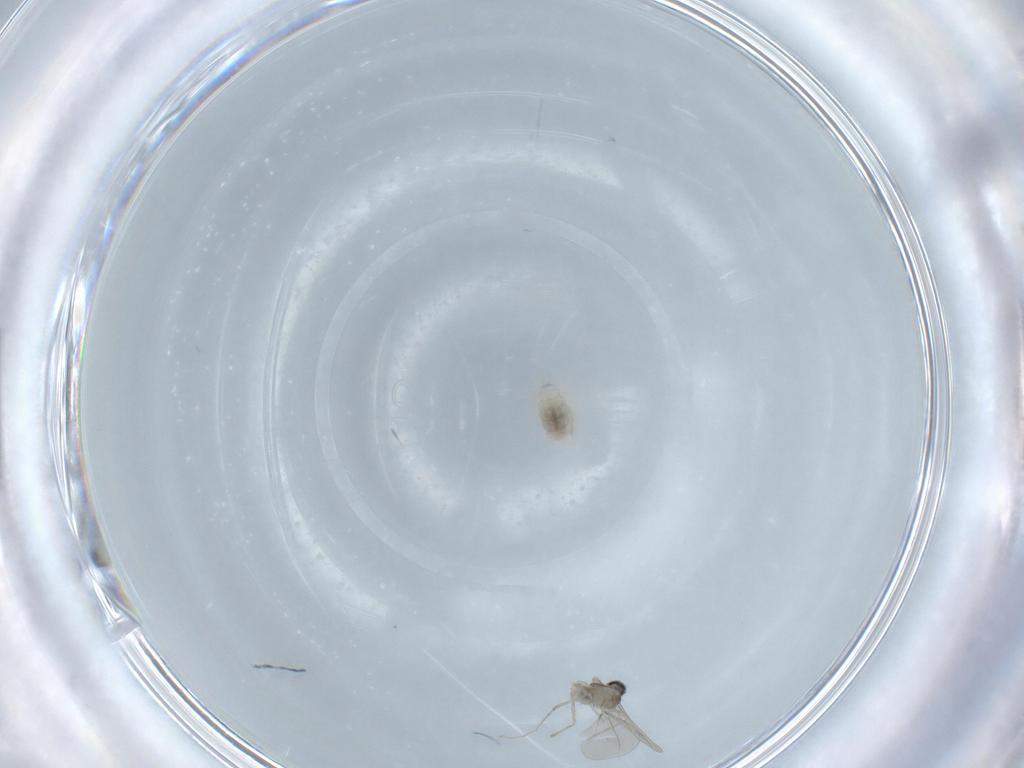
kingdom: Animalia
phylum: Arthropoda
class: Insecta
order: Diptera
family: Cecidomyiidae
